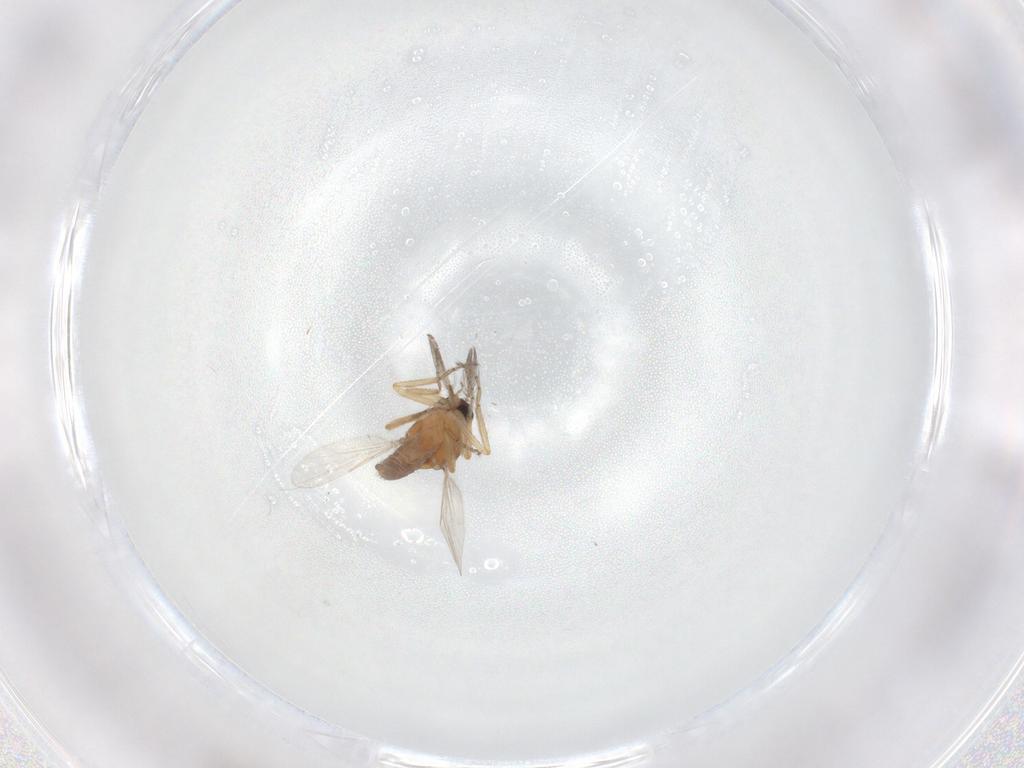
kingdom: Animalia
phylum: Arthropoda
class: Insecta
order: Diptera
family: Ceratopogonidae
